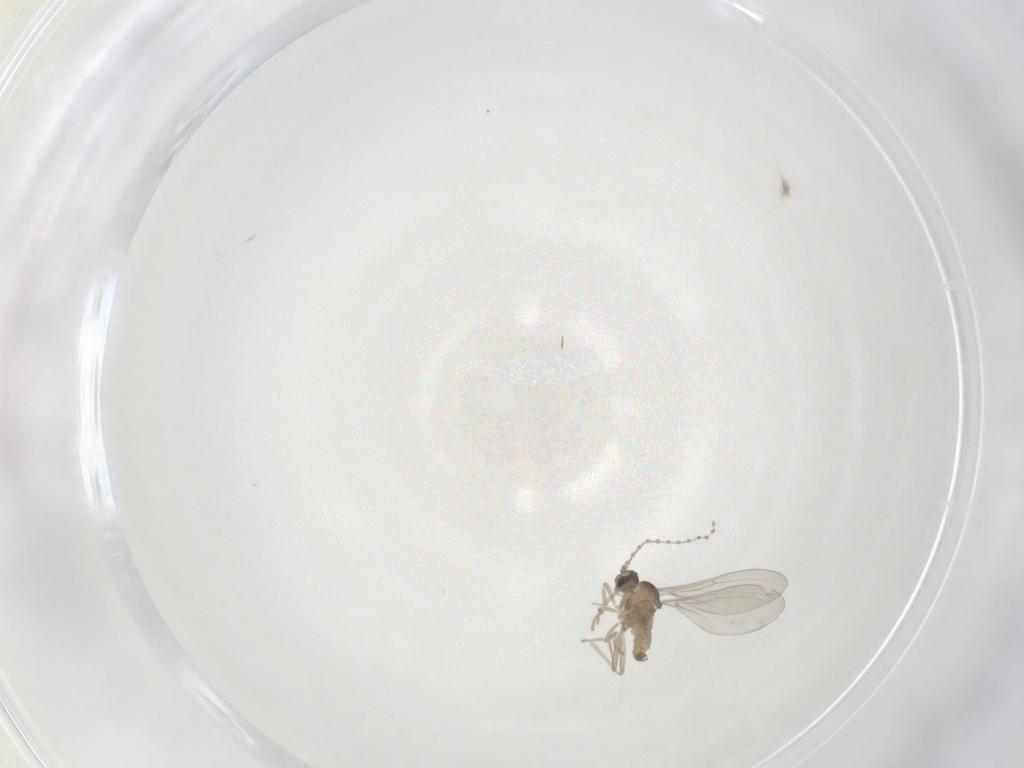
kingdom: Animalia
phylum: Arthropoda
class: Insecta
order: Diptera
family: Cecidomyiidae
